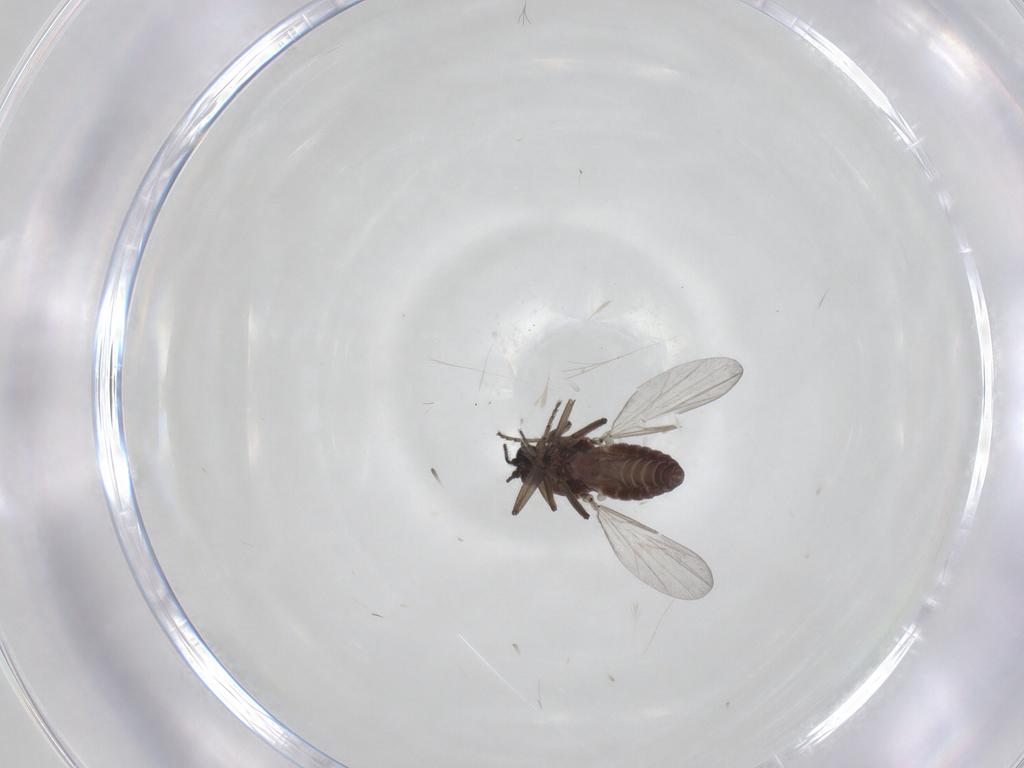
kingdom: Animalia
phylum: Arthropoda
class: Insecta
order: Diptera
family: Ceratopogonidae
